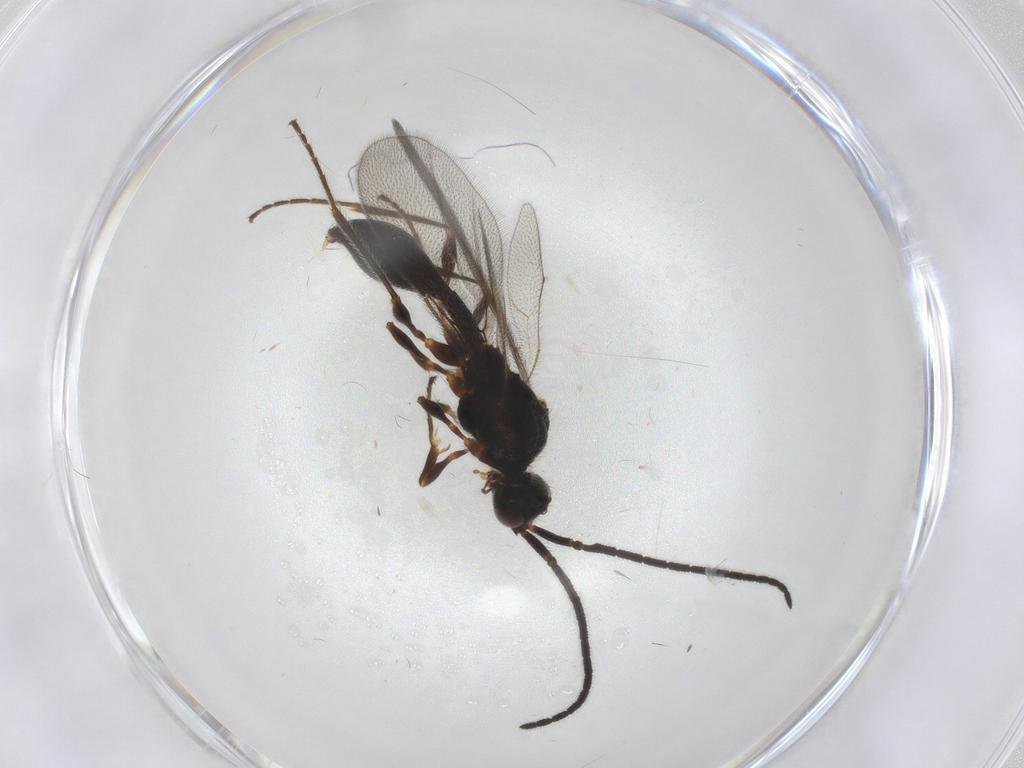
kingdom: Animalia
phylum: Arthropoda
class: Insecta
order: Hymenoptera
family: Diapriidae
